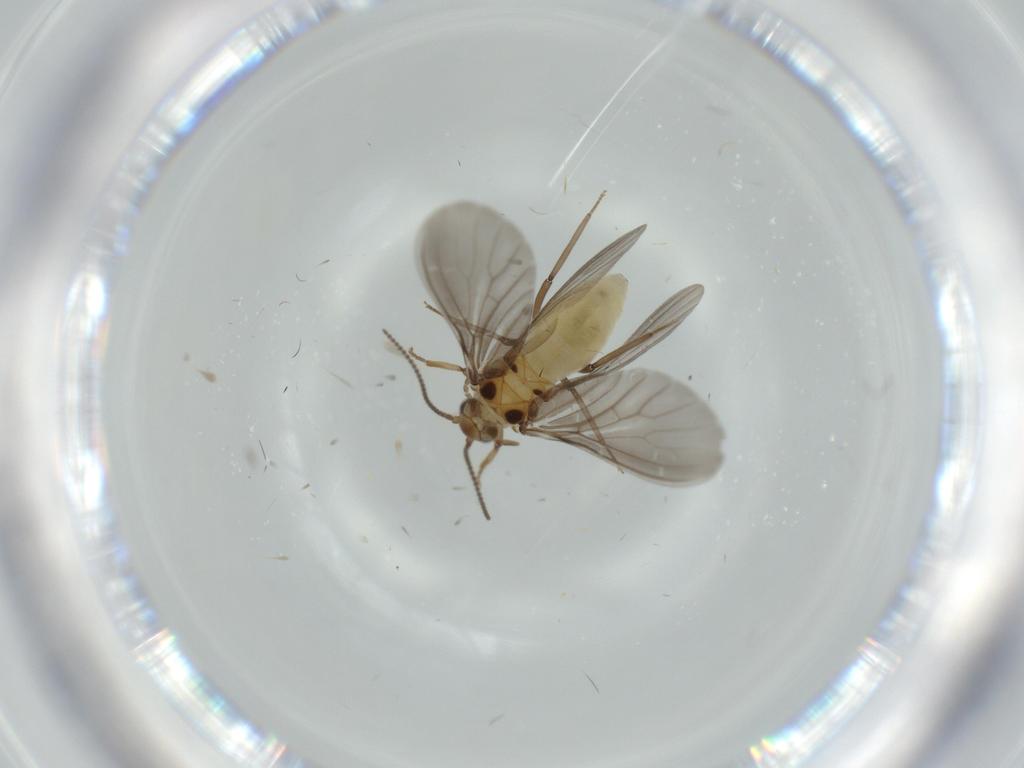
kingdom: Animalia
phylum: Arthropoda
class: Insecta
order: Neuroptera
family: Coniopterygidae
